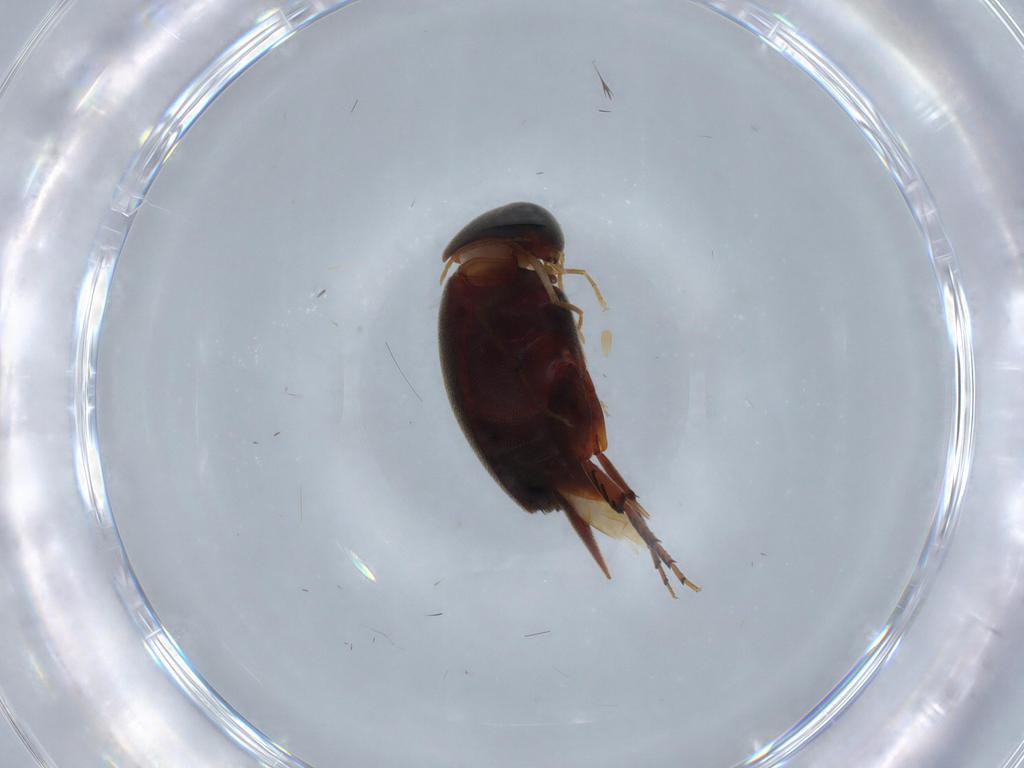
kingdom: Animalia
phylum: Arthropoda
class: Insecta
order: Coleoptera
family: Mordellidae
